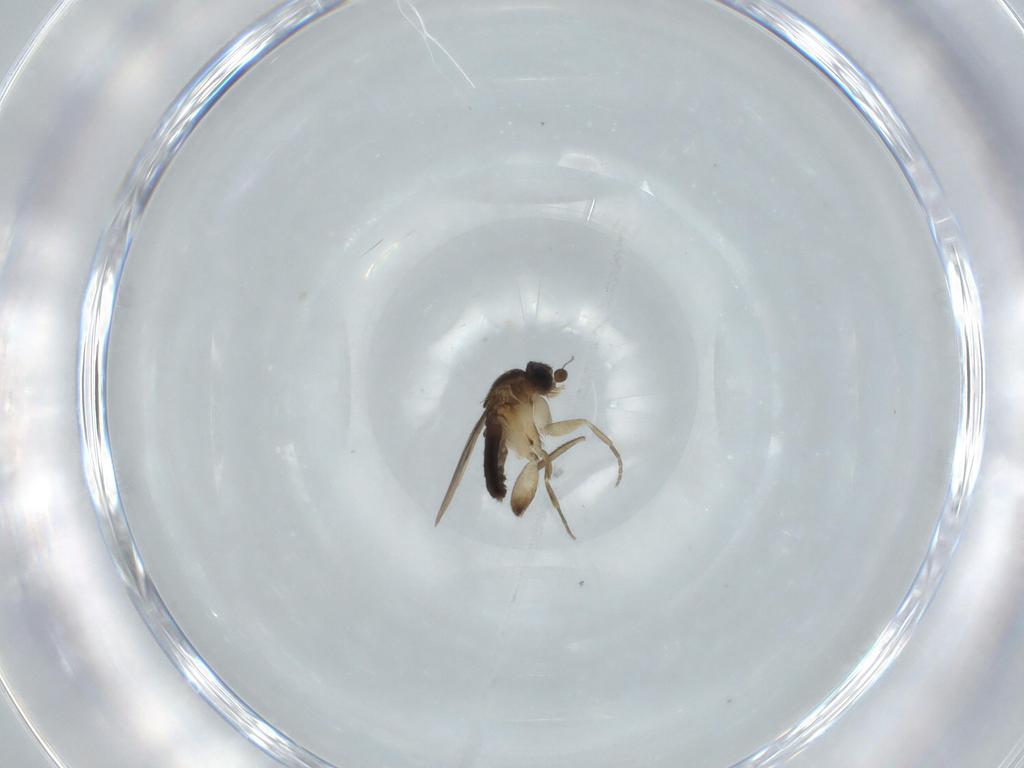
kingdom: Animalia
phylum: Arthropoda
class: Insecta
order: Diptera
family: Phoridae
